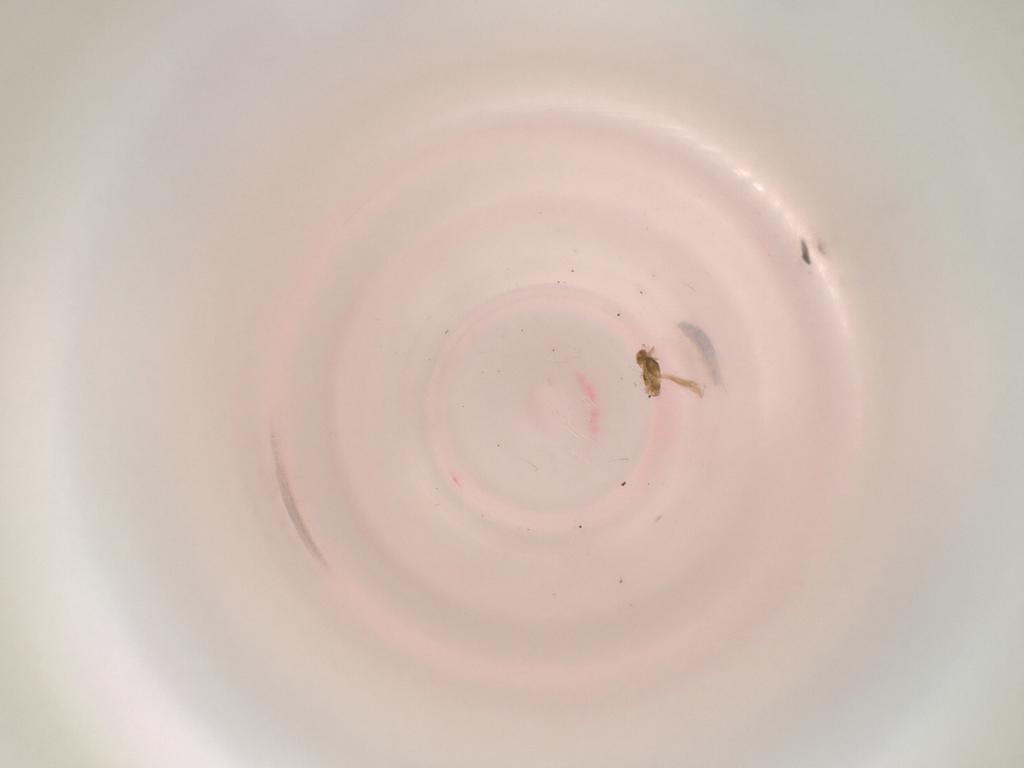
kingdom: Animalia
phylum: Arthropoda
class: Insecta
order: Diptera
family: Cecidomyiidae
